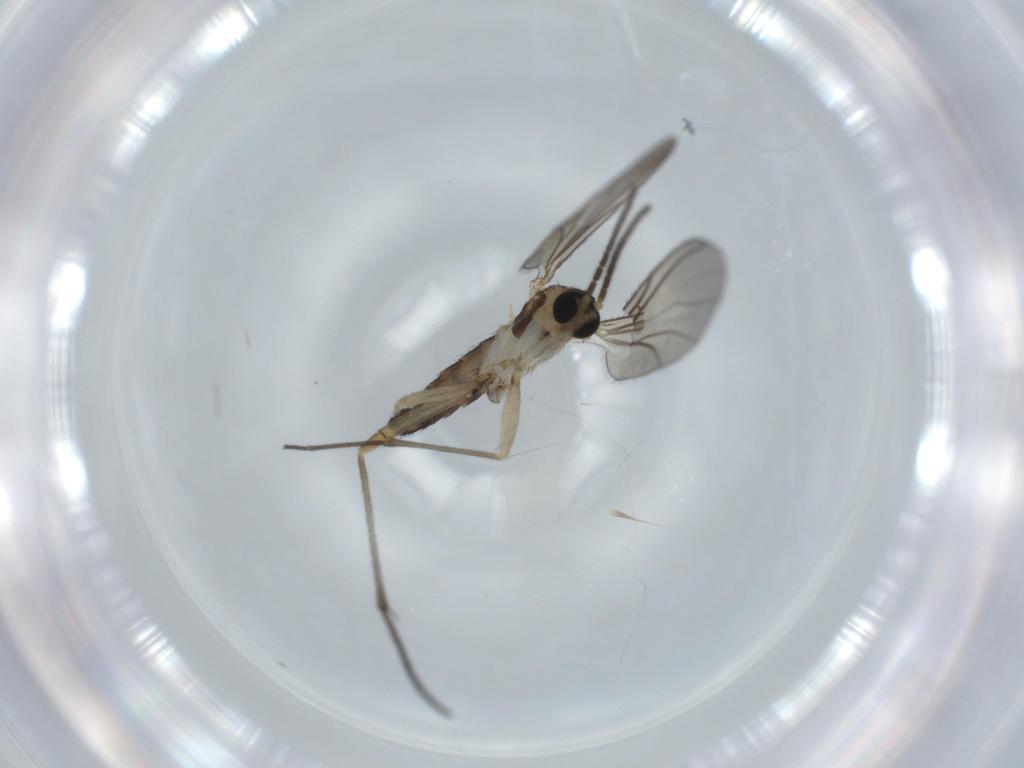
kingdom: Animalia
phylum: Arthropoda
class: Insecta
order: Diptera
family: Sciaridae
